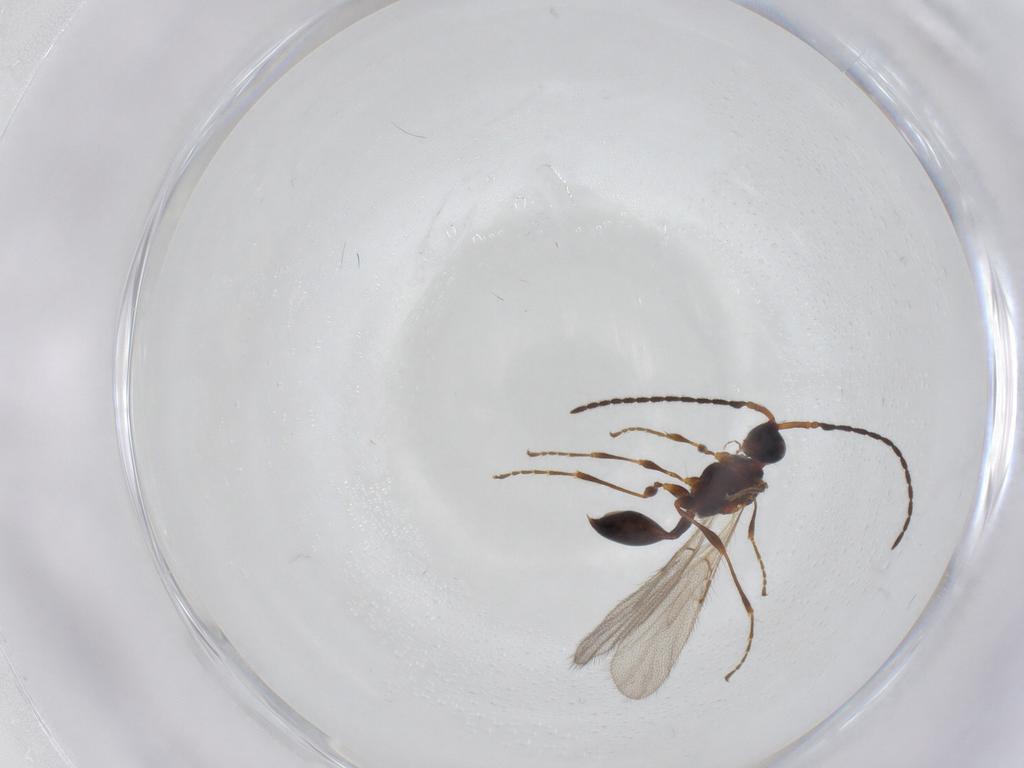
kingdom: Animalia
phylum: Arthropoda
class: Insecta
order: Hymenoptera
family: Diapriidae
